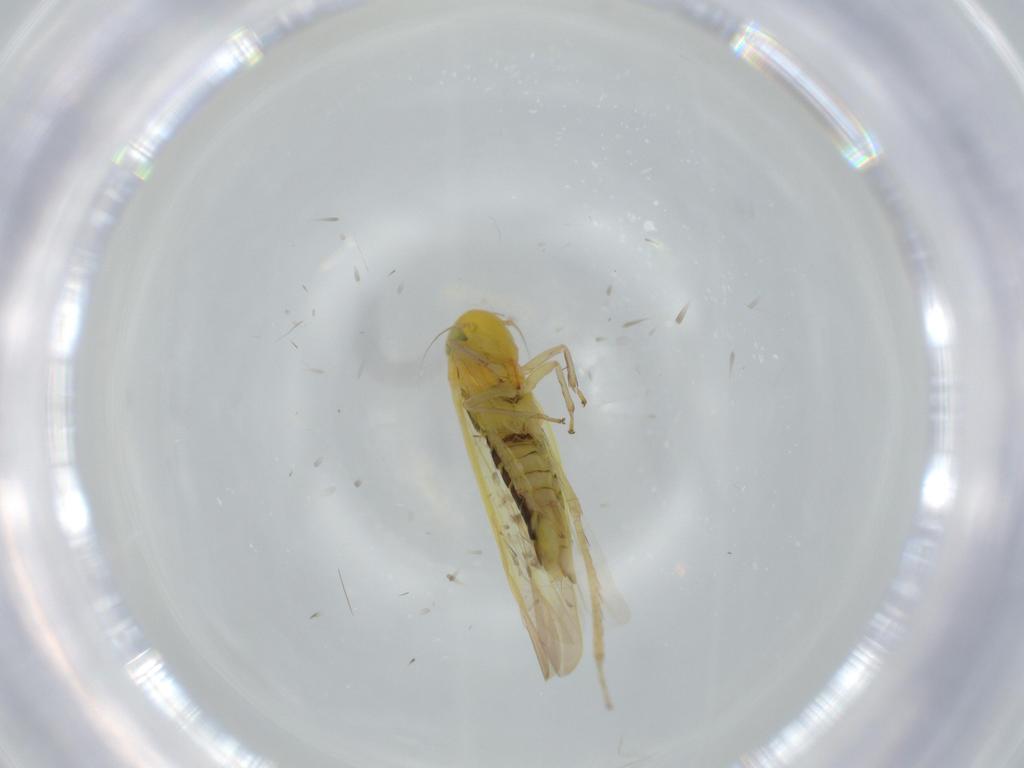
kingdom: Animalia
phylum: Arthropoda
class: Insecta
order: Hemiptera
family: Cicadellidae
